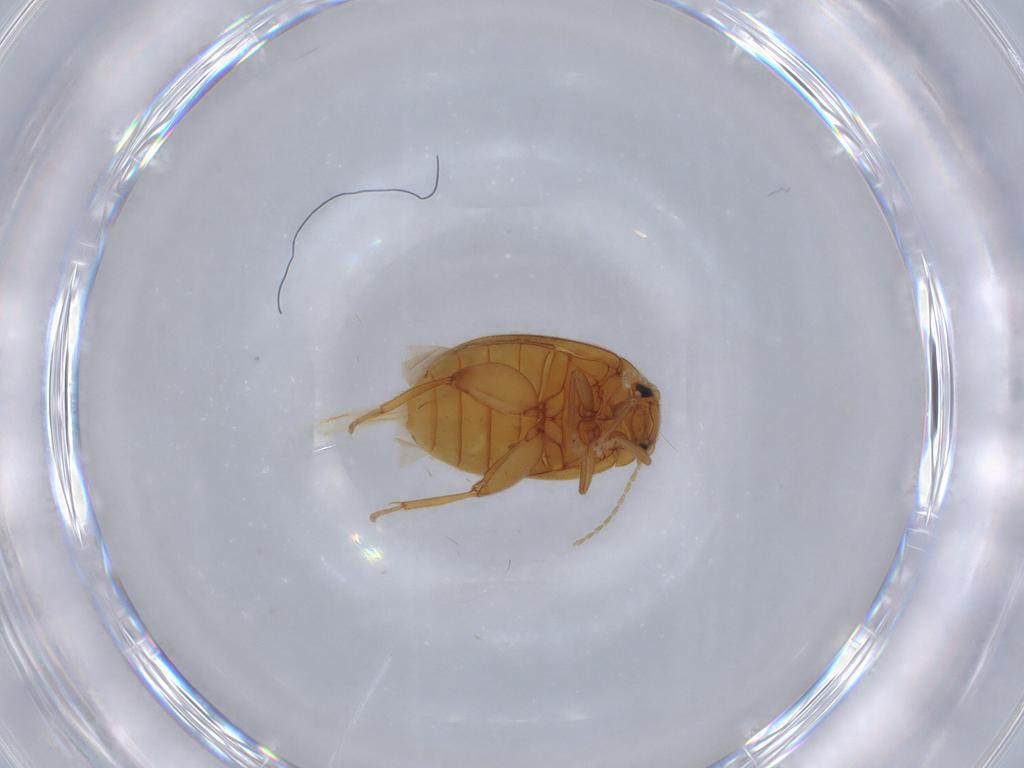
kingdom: Animalia
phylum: Arthropoda
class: Insecta
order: Coleoptera
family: Scirtidae
